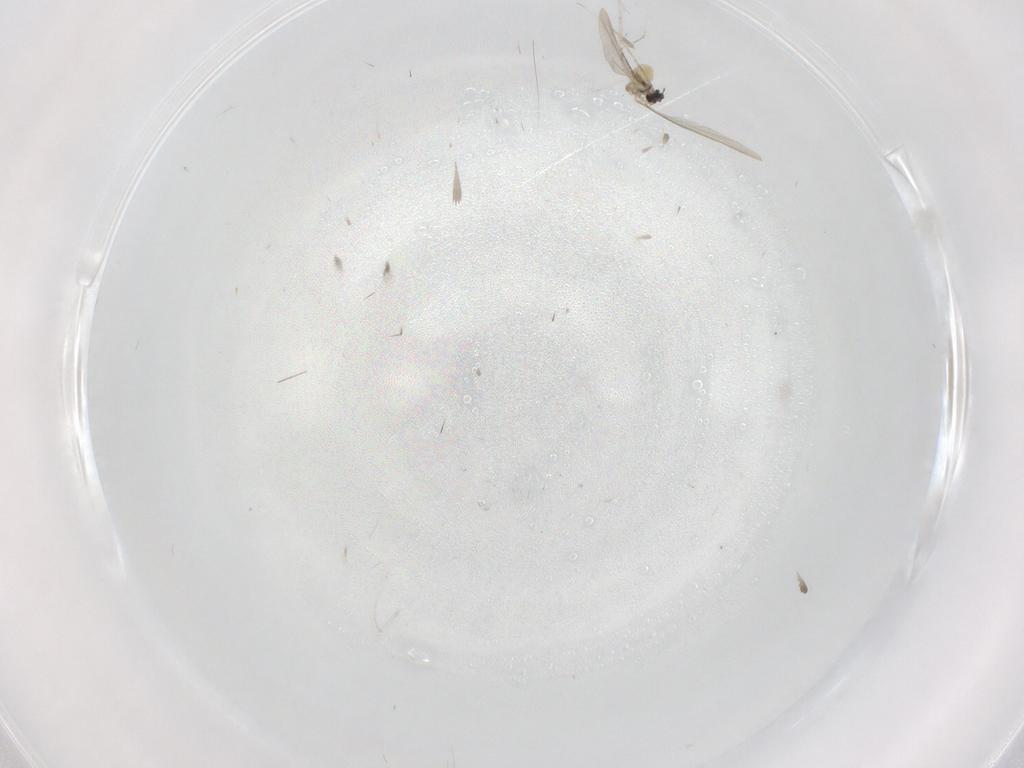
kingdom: Animalia
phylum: Arthropoda
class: Insecta
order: Diptera
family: Cecidomyiidae
